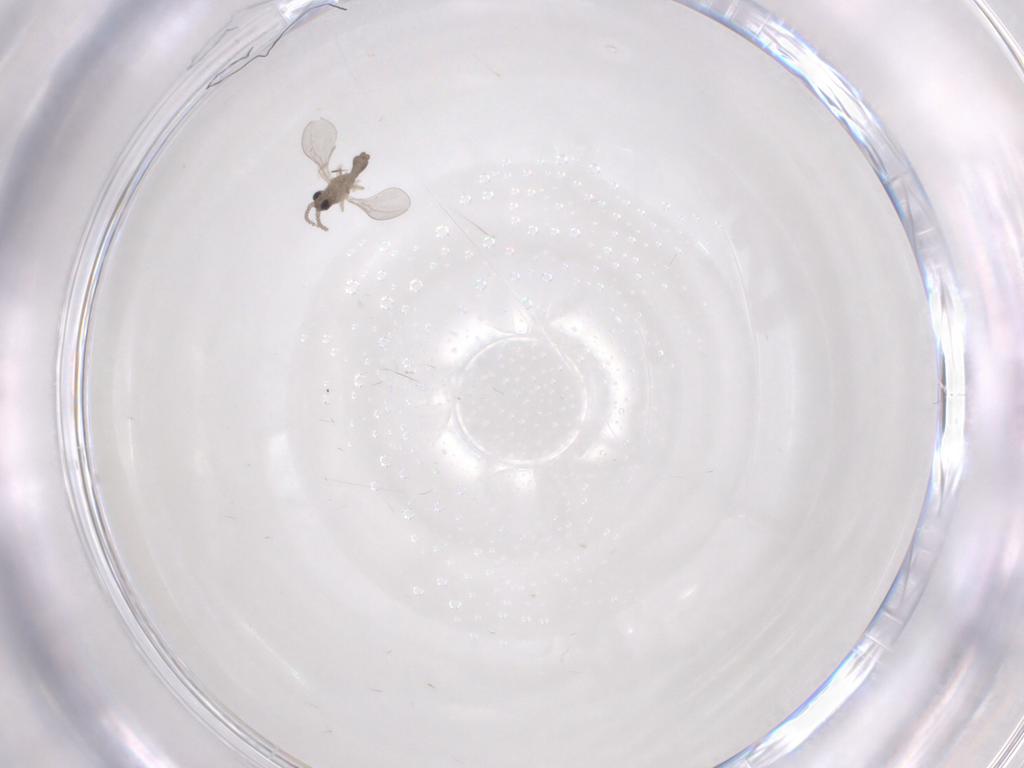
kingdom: Animalia
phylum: Arthropoda
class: Insecta
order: Diptera
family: Cecidomyiidae
